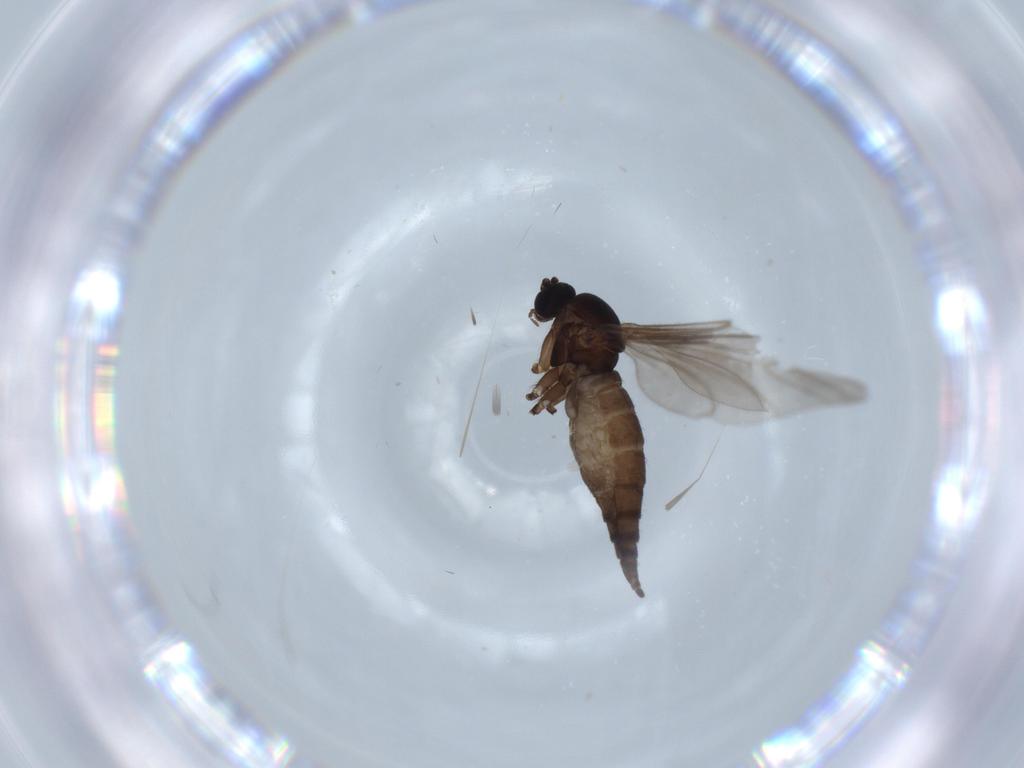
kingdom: Animalia
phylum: Arthropoda
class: Insecta
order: Diptera
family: Sciaridae
